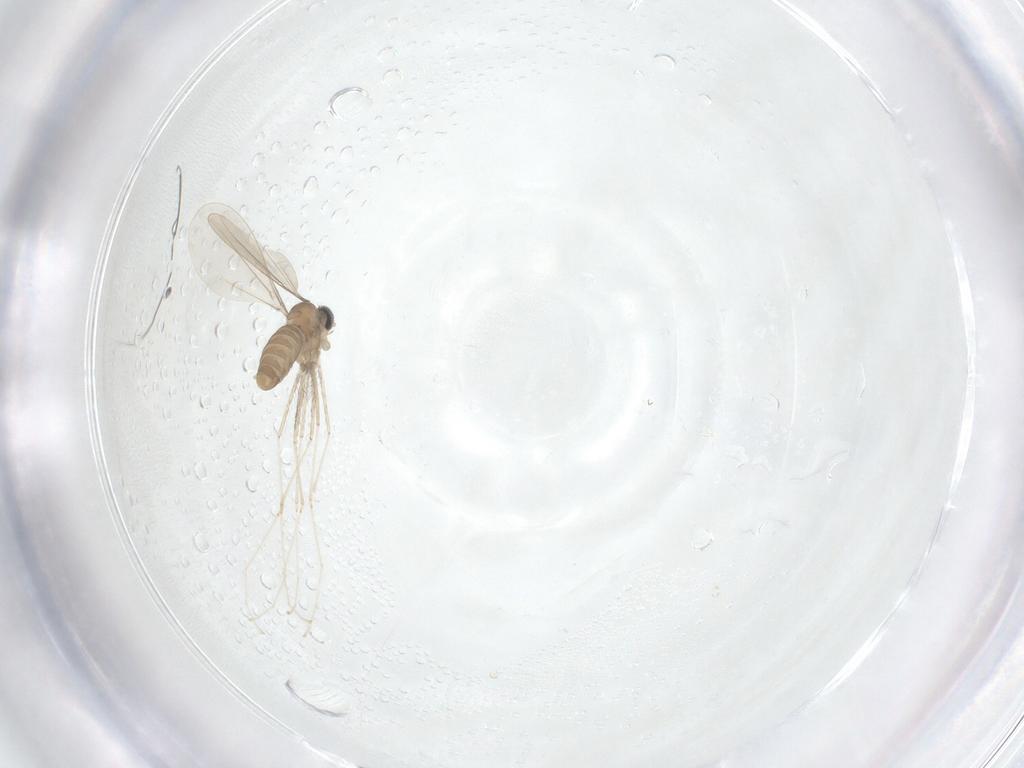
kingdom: Animalia
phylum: Arthropoda
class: Insecta
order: Diptera
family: Cecidomyiidae
